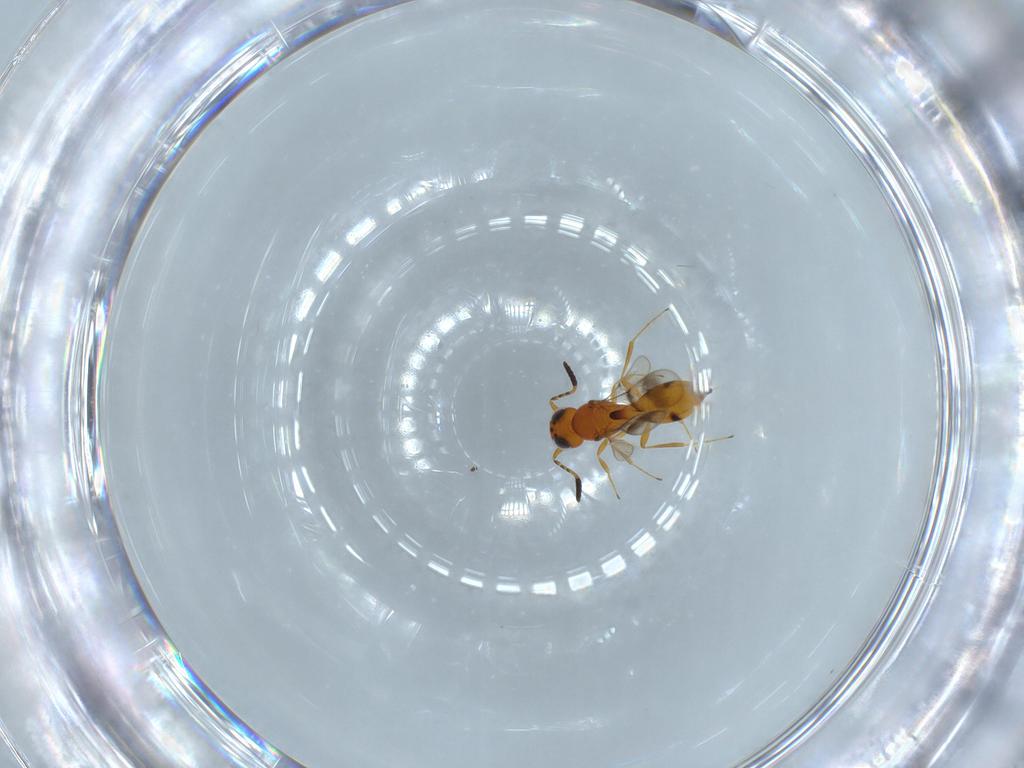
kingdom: Animalia
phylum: Arthropoda
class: Insecta
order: Hymenoptera
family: Scelionidae
